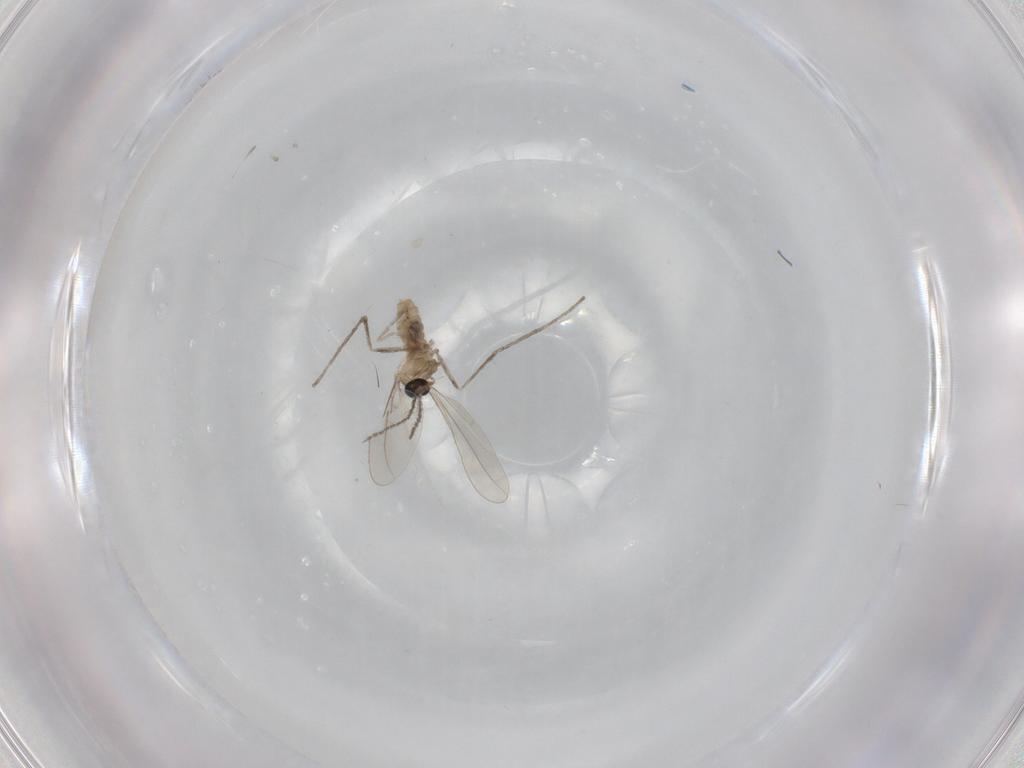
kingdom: Animalia
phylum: Arthropoda
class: Insecta
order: Diptera
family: Cecidomyiidae
